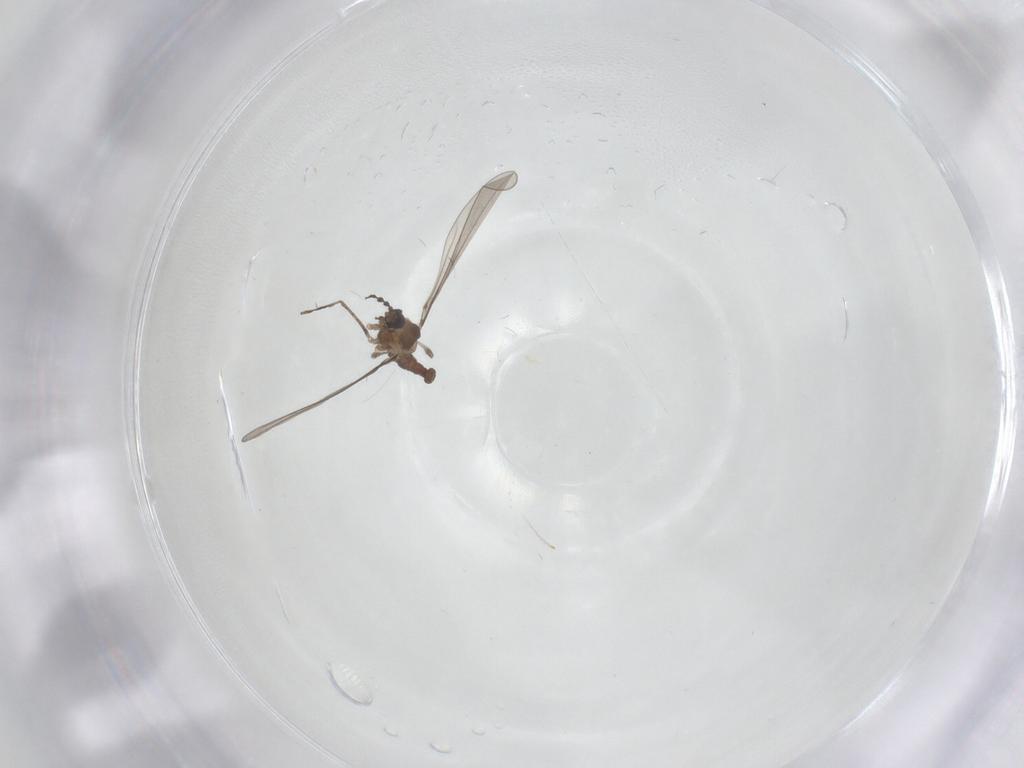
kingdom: Animalia
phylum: Arthropoda
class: Insecta
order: Diptera
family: Cecidomyiidae
